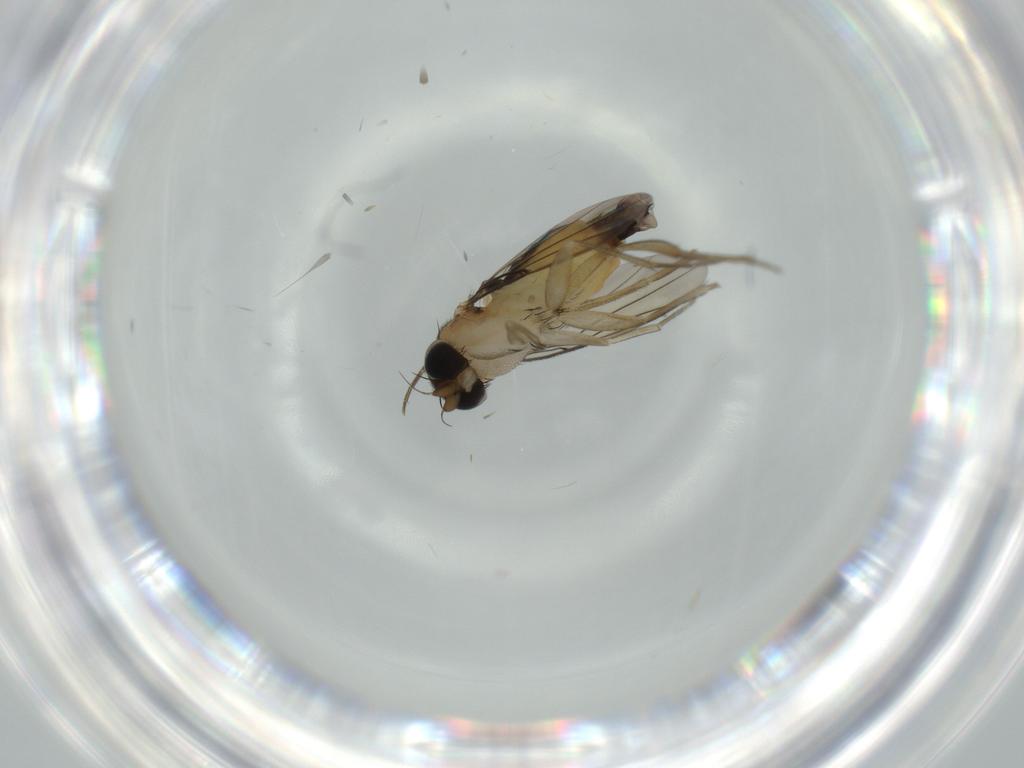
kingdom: Animalia
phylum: Arthropoda
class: Insecta
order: Diptera
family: Phoridae
